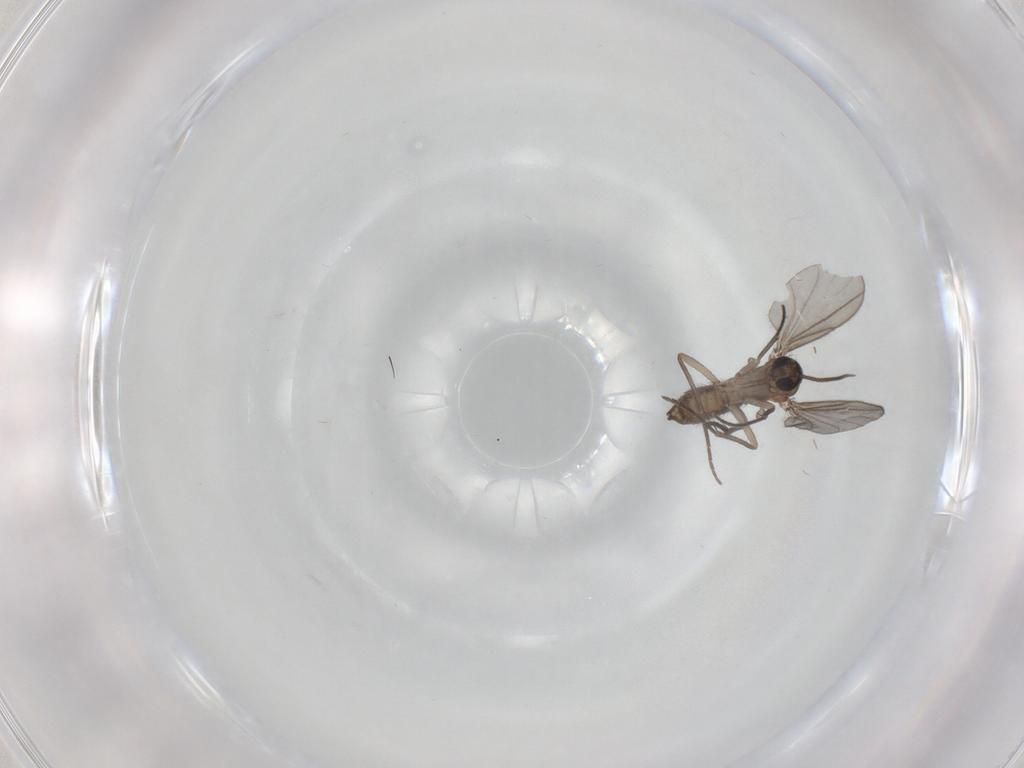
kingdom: Animalia
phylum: Arthropoda
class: Insecta
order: Diptera
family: Sciaridae
